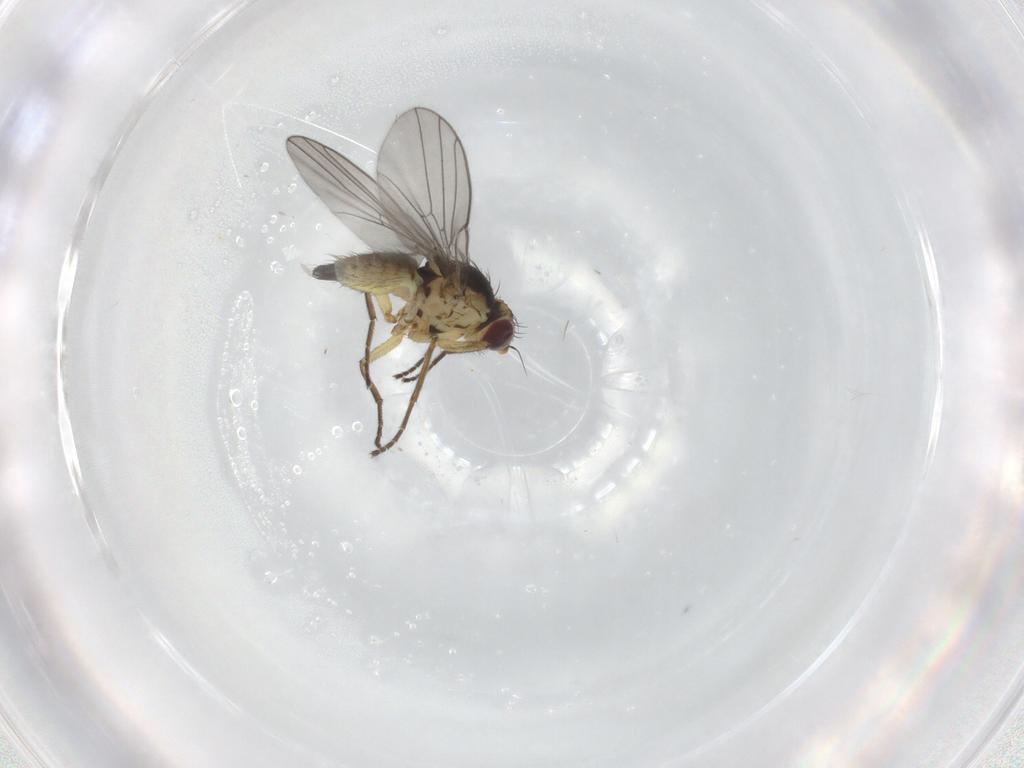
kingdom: Animalia
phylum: Arthropoda
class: Insecta
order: Diptera
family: Agromyzidae
